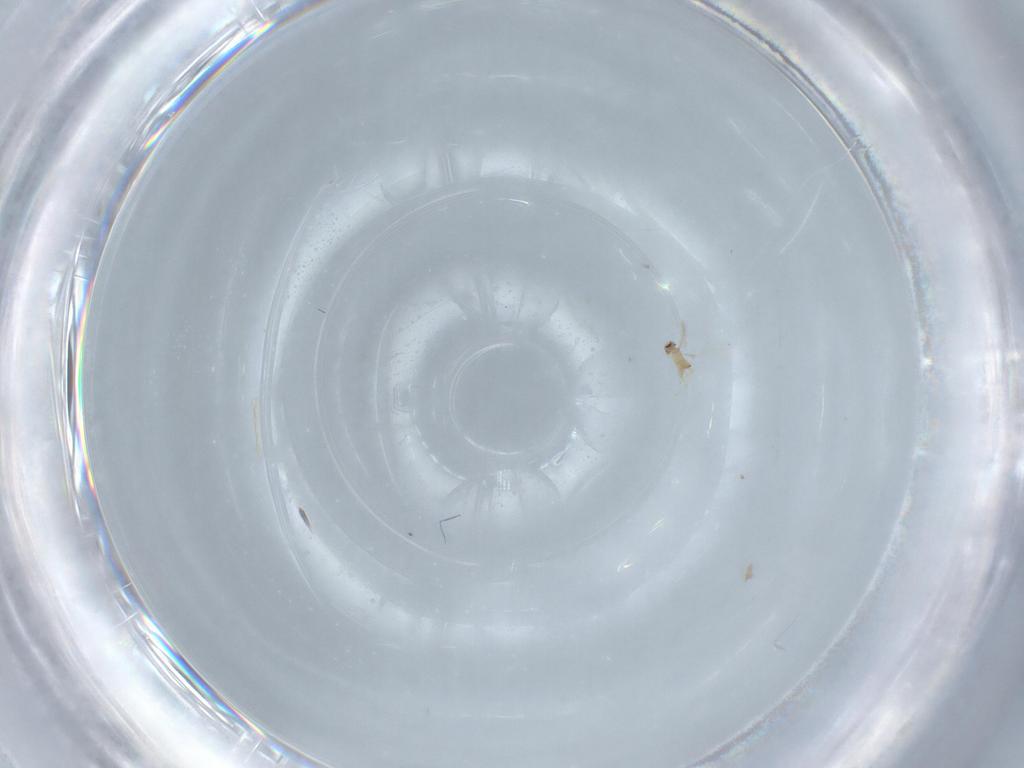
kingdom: Animalia
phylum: Arthropoda
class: Insecta
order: Hymenoptera
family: Mymaridae
